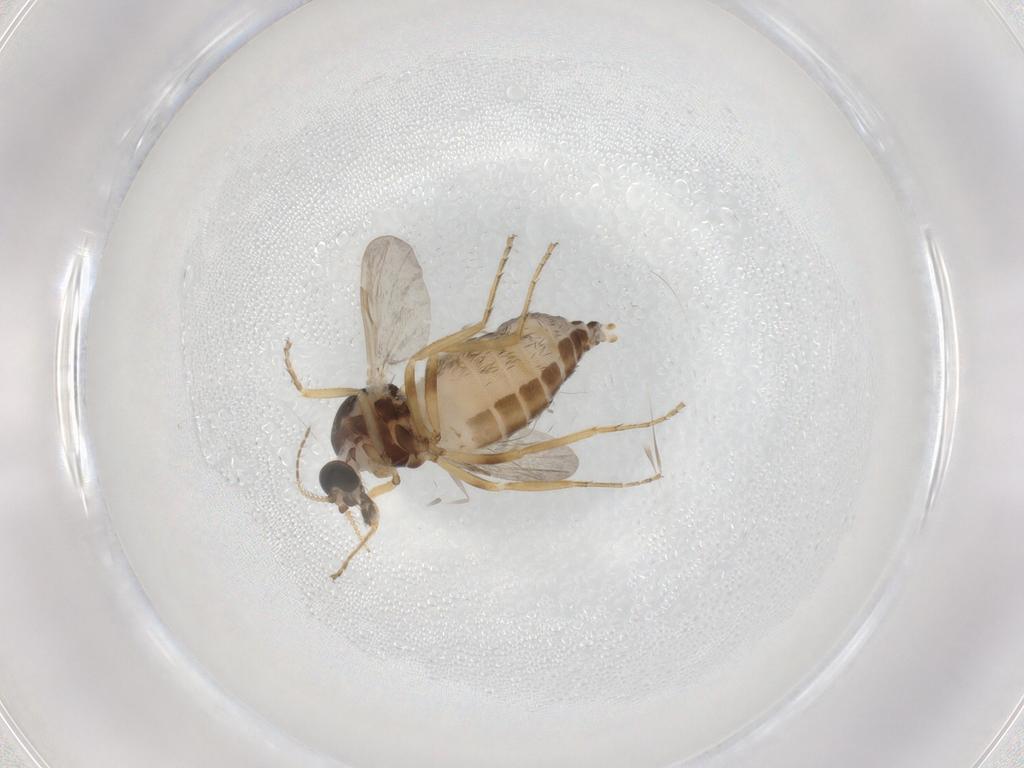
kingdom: Animalia
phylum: Arthropoda
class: Insecta
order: Diptera
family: Ceratopogonidae
